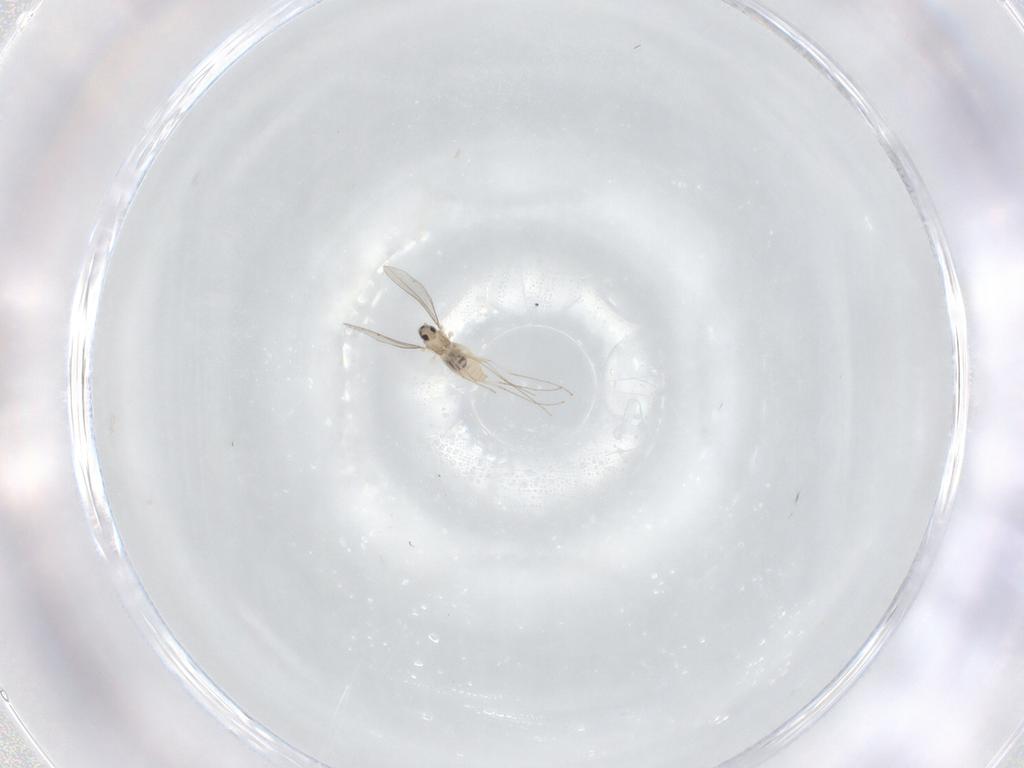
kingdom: Animalia
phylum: Arthropoda
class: Insecta
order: Diptera
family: Cecidomyiidae
